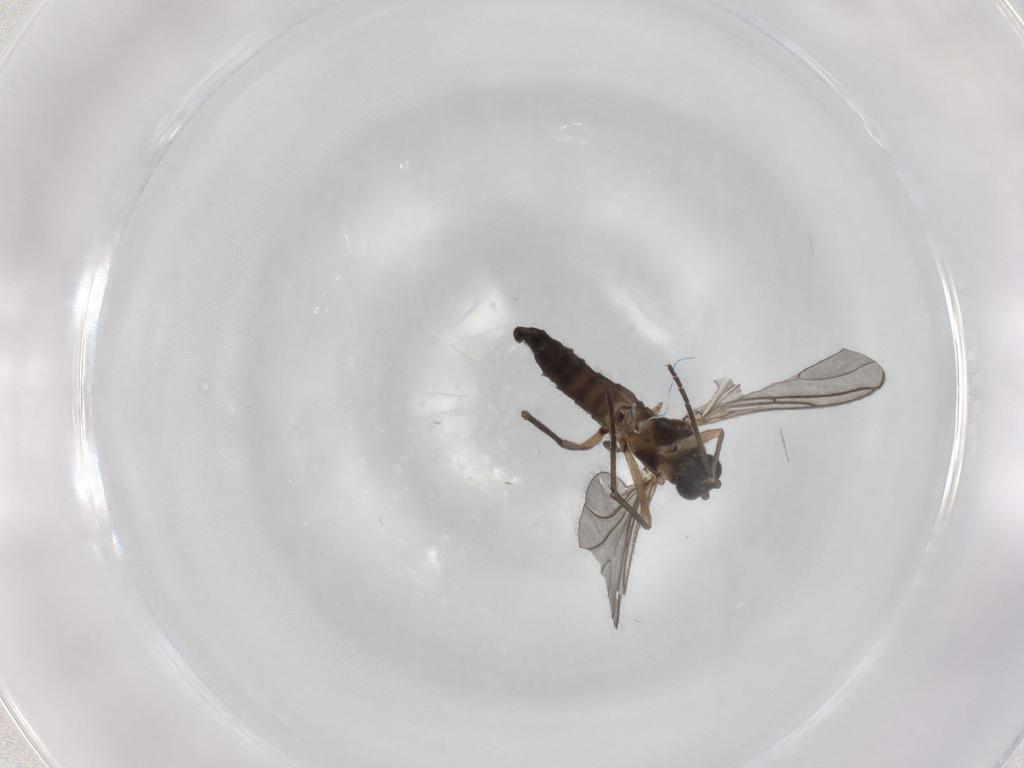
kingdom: Animalia
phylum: Arthropoda
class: Insecta
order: Diptera
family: Sciaridae
